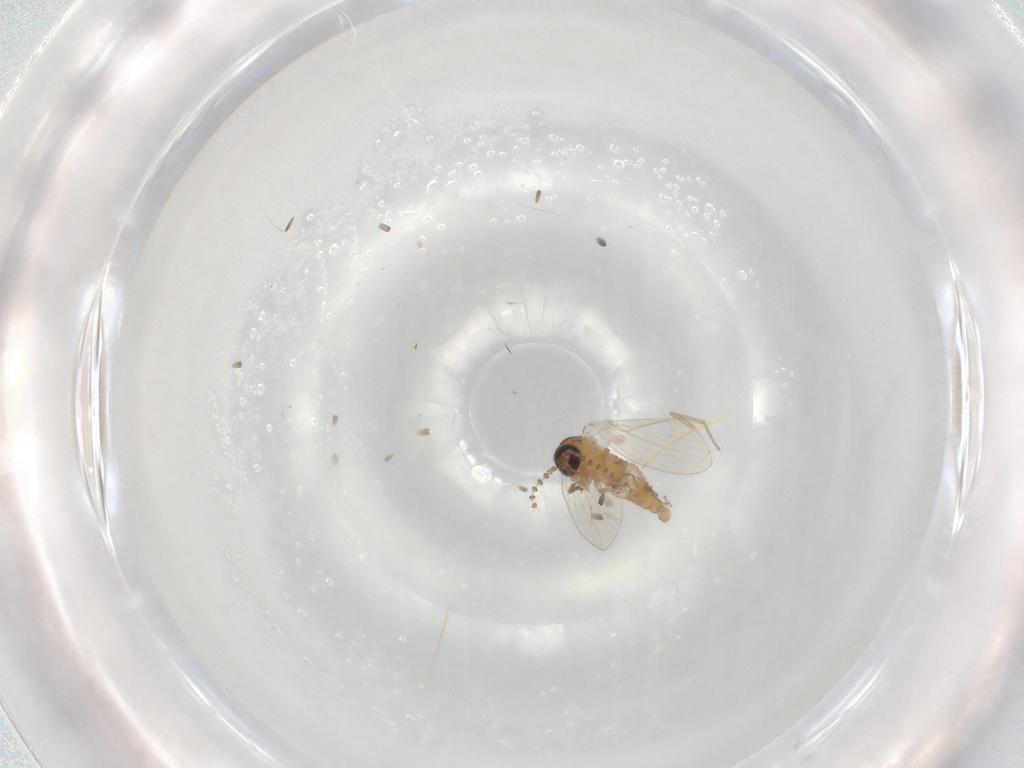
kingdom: Animalia
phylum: Arthropoda
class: Insecta
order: Diptera
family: Psychodidae
